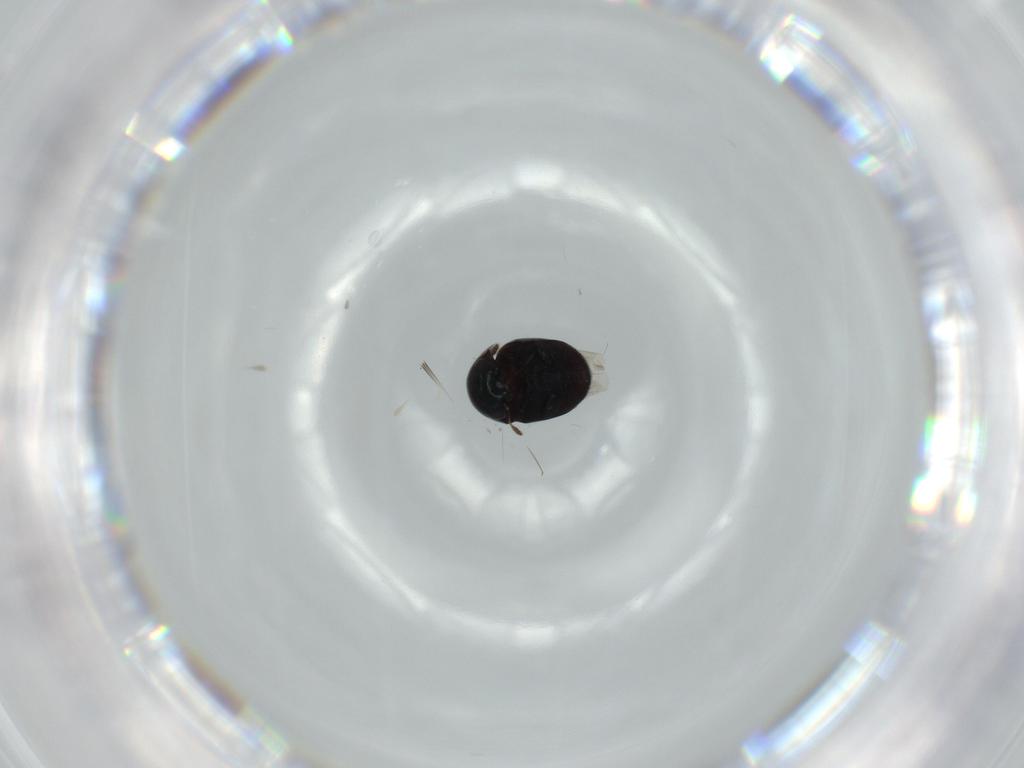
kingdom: Animalia
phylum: Arthropoda
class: Insecta
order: Coleoptera
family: Cybocephalidae
